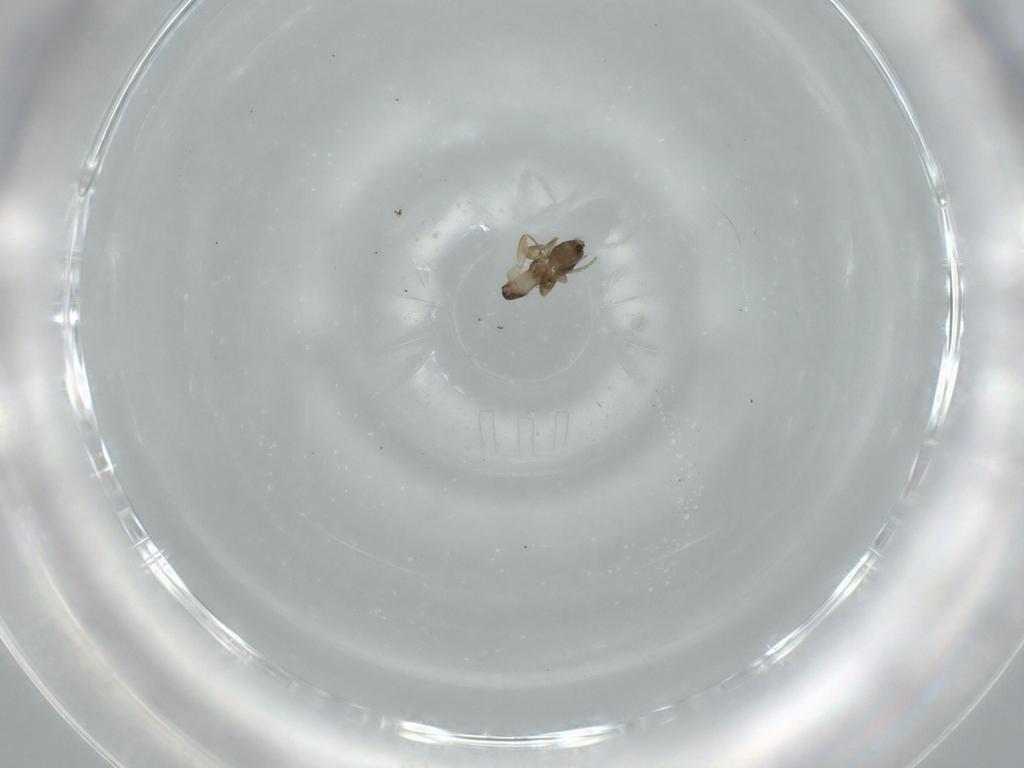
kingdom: Animalia
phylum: Arthropoda
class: Insecta
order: Diptera
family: Phoridae
